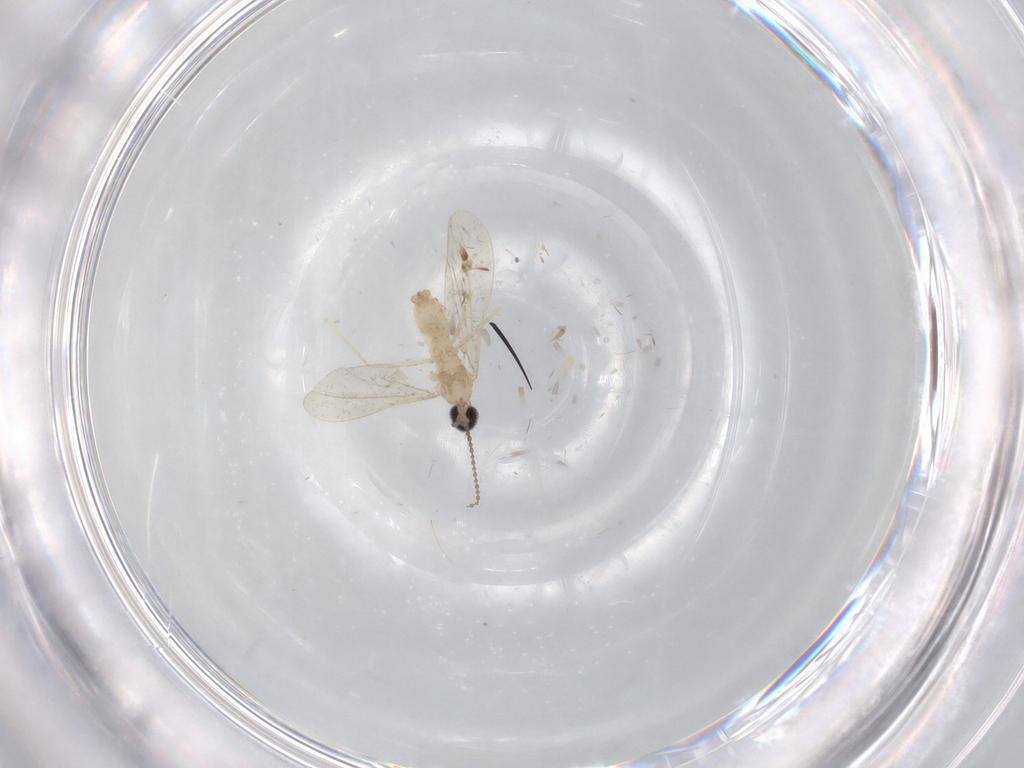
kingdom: Animalia
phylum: Arthropoda
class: Insecta
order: Diptera
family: Cecidomyiidae
